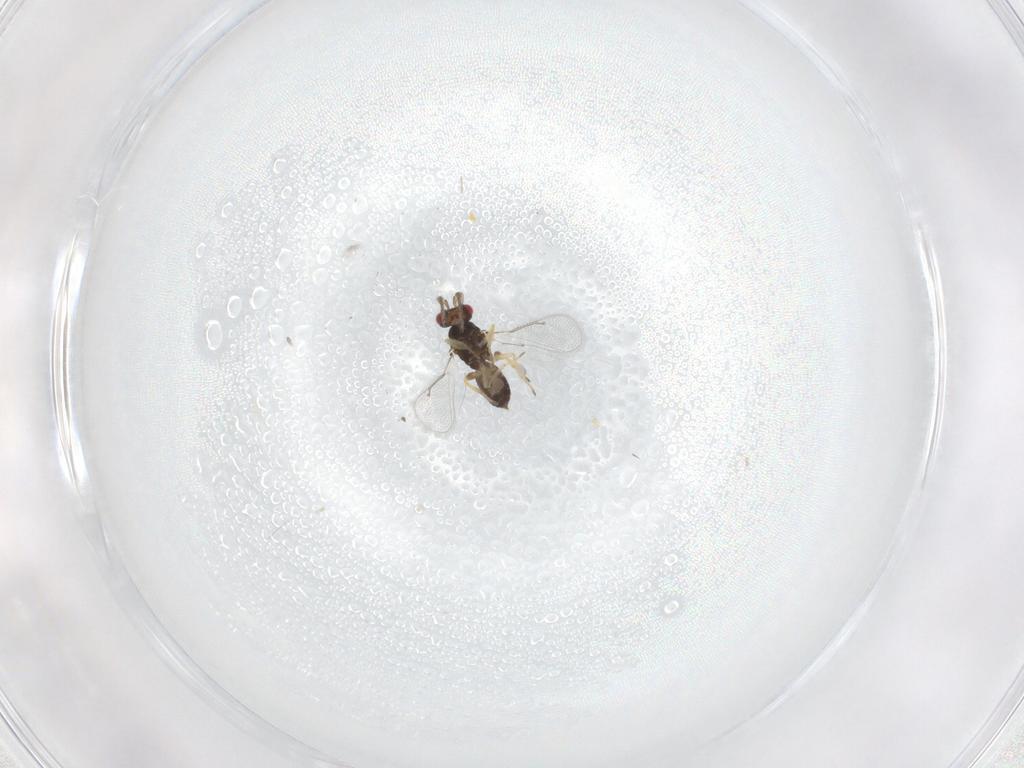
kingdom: Animalia
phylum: Arthropoda
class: Insecta
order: Hymenoptera
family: Eulophidae
